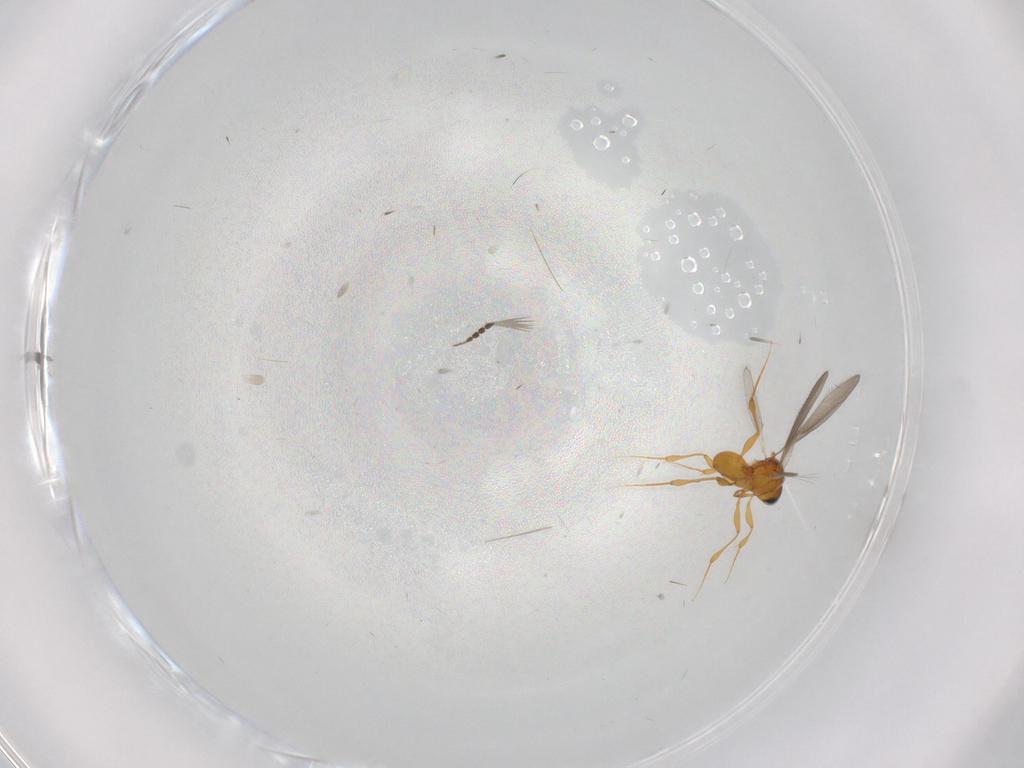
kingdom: Animalia
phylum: Arthropoda
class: Insecta
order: Hymenoptera
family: Platygastridae
